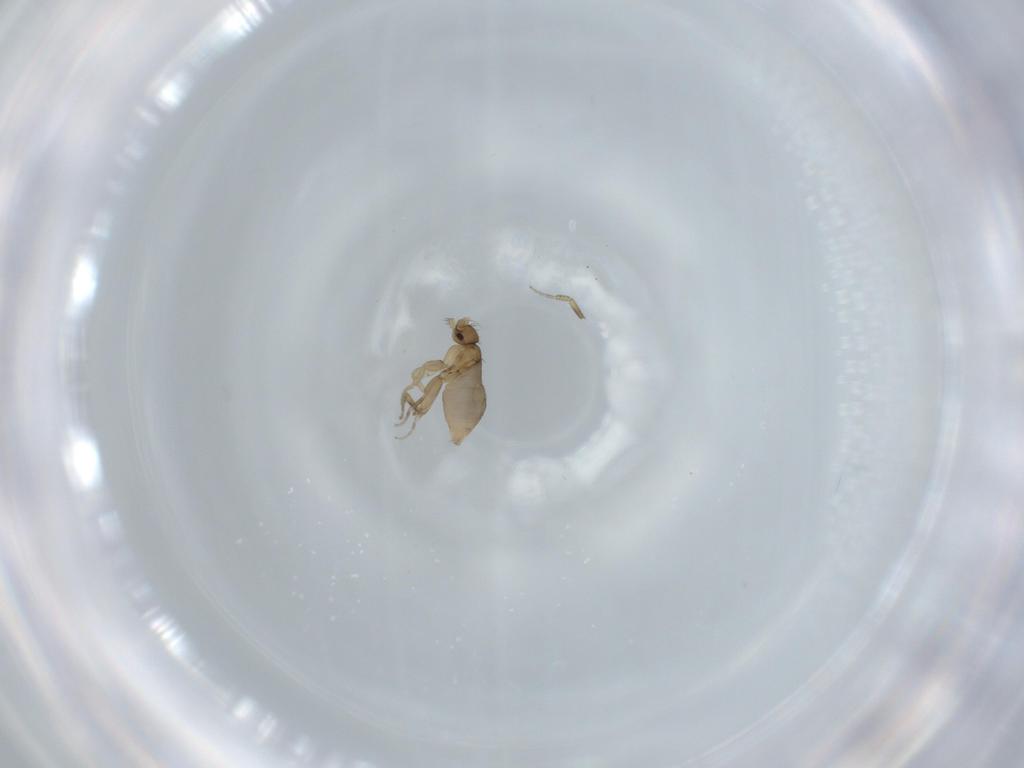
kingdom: Animalia
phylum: Arthropoda
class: Insecta
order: Diptera
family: Phoridae
